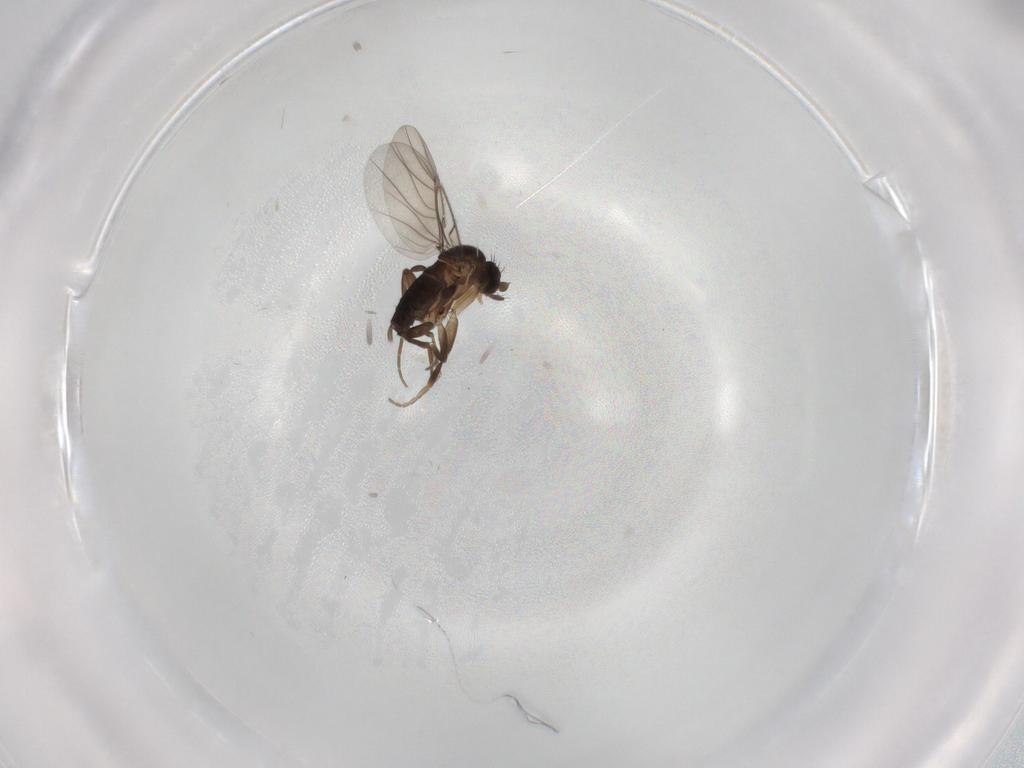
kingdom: Animalia
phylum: Arthropoda
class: Insecta
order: Diptera
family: Phoridae
